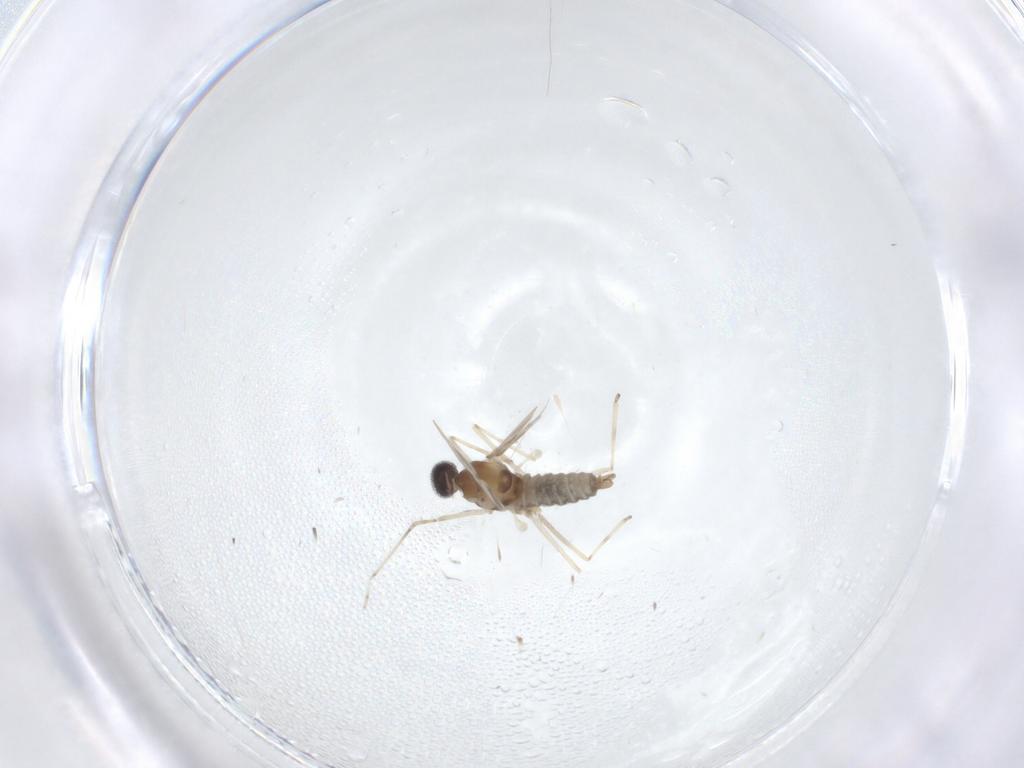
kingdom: Animalia
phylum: Arthropoda
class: Insecta
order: Diptera
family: Cecidomyiidae
